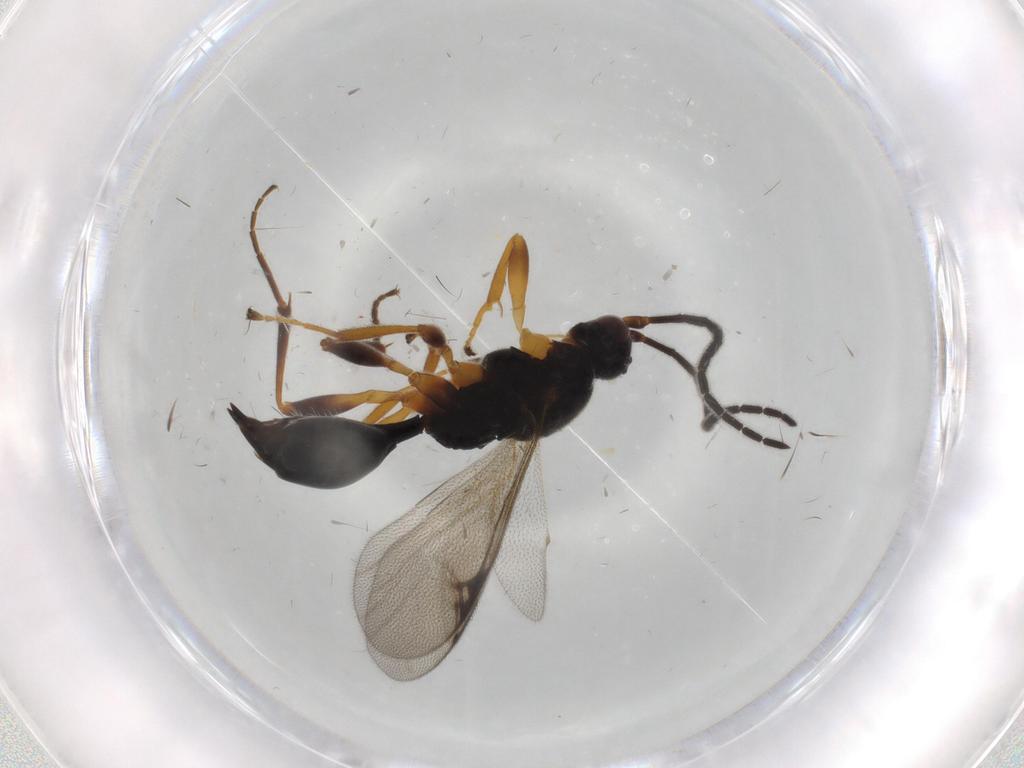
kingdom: Animalia
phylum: Arthropoda
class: Insecta
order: Hymenoptera
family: Proctotrupidae
